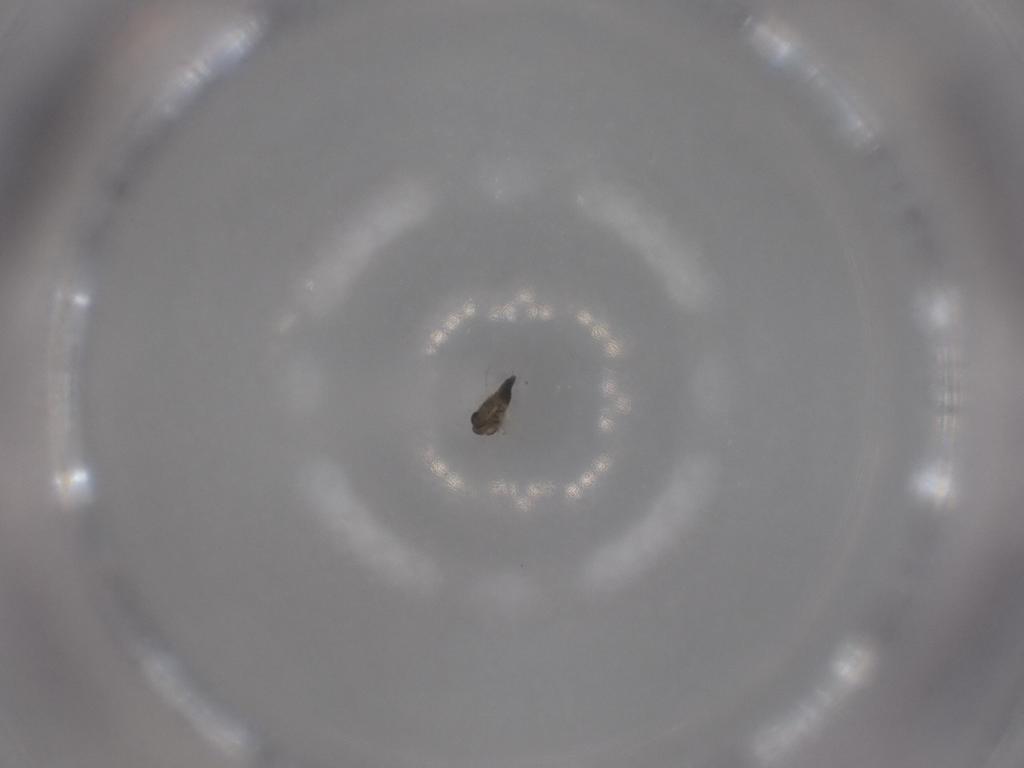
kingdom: Animalia
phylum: Arthropoda
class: Insecta
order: Diptera
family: Chironomidae
